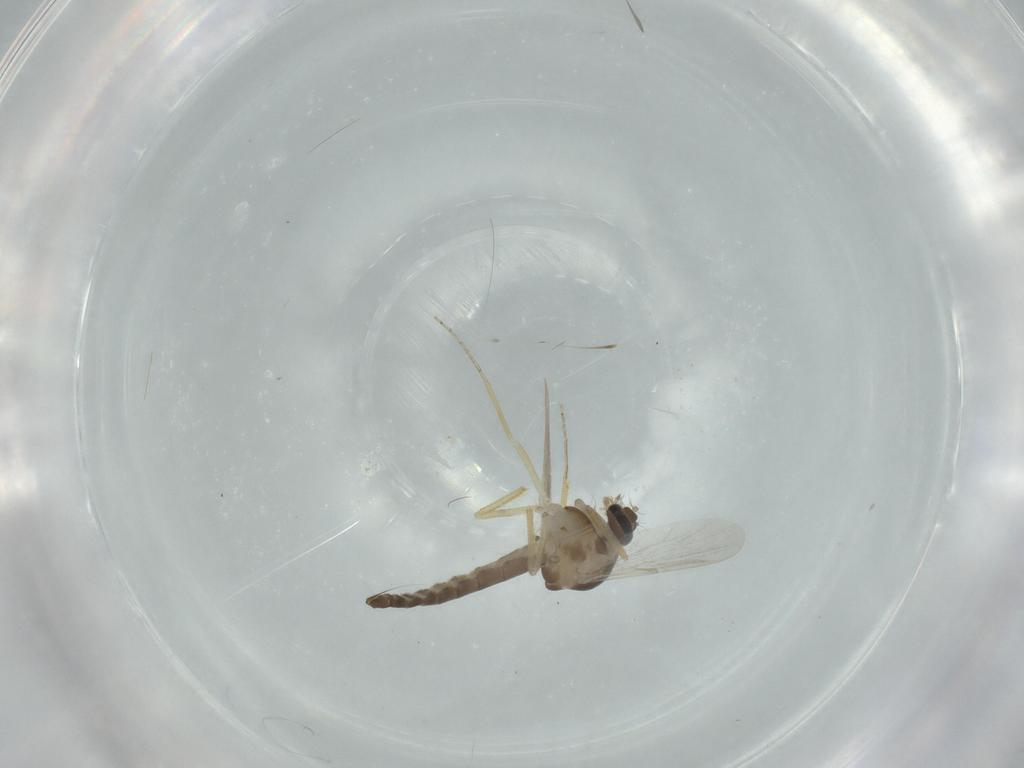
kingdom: Animalia
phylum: Arthropoda
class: Insecta
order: Diptera
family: Ceratopogonidae
